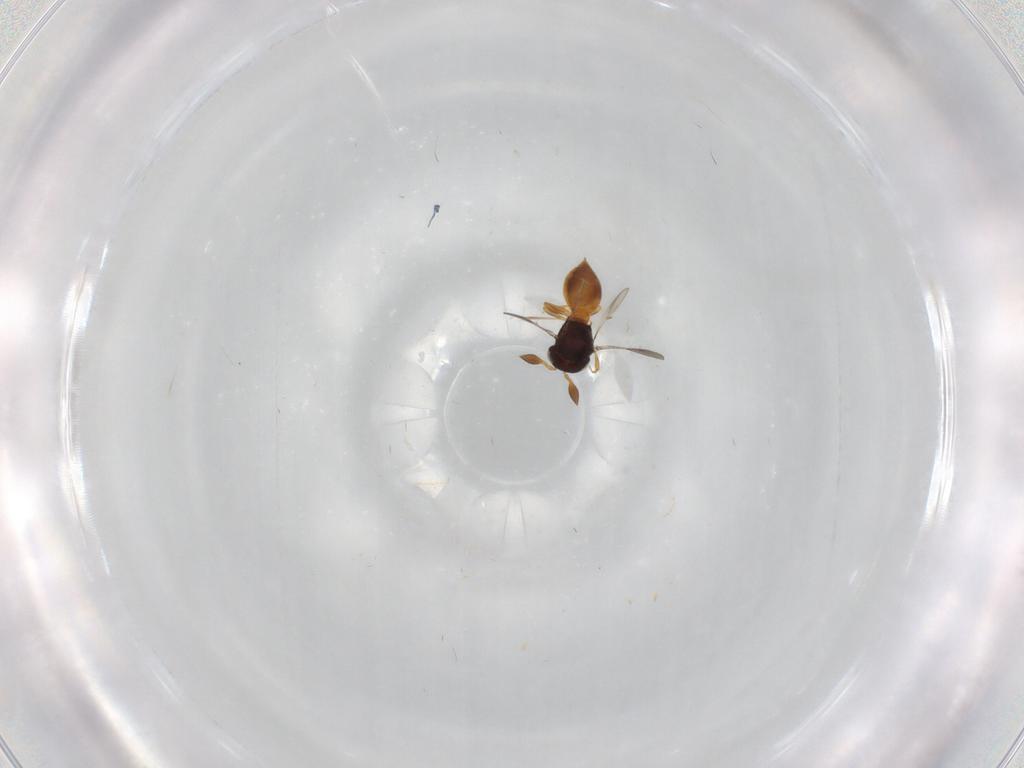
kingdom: Animalia
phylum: Arthropoda
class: Insecta
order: Hymenoptera
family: Scelionidae
